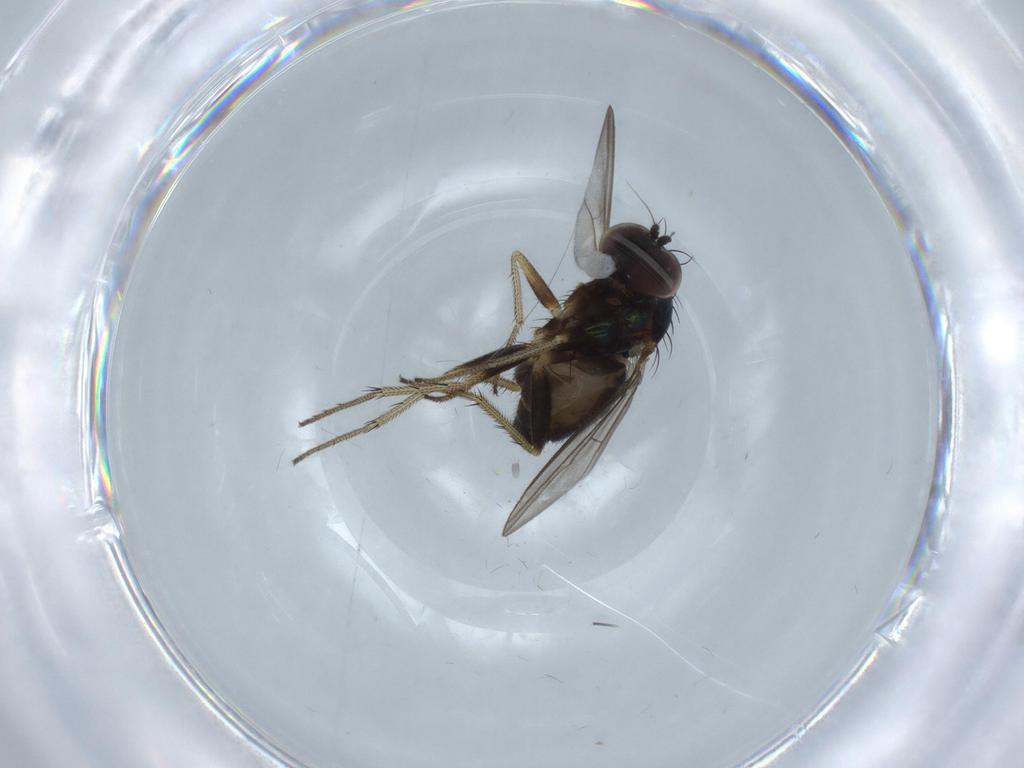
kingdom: Animalia
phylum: Arthropoda
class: Insecta
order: Diptera
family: Dolichopodidae
